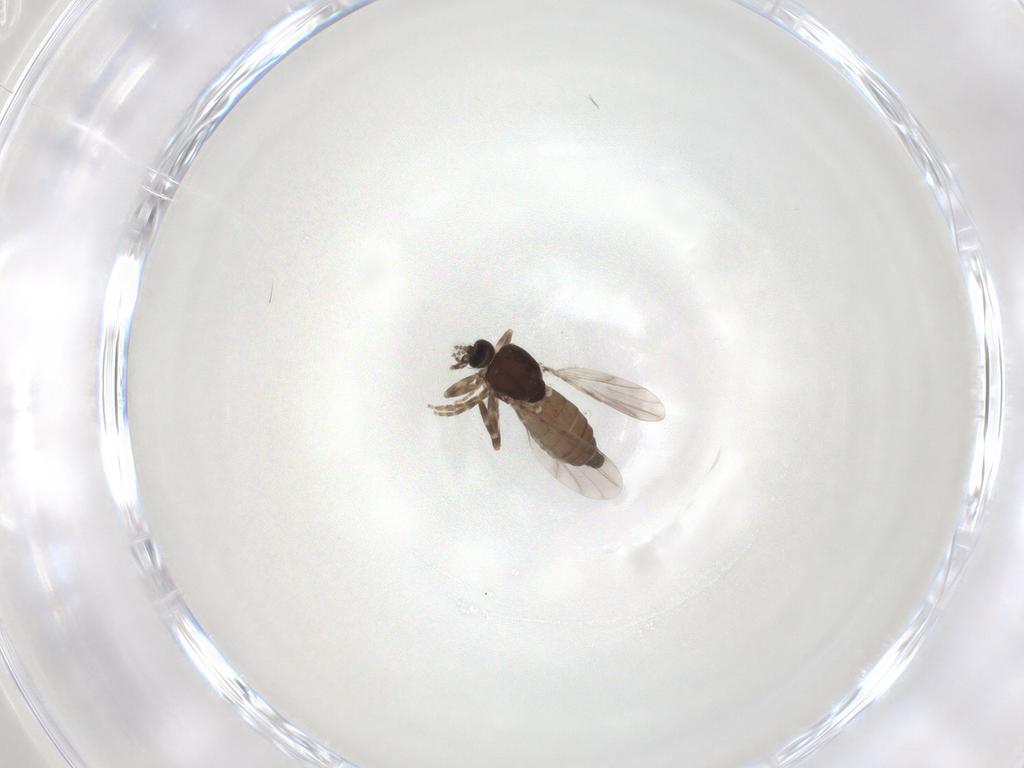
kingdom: Animalia
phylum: Arthropoda
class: Insecta
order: Diptera
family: Ceratopogonidae
